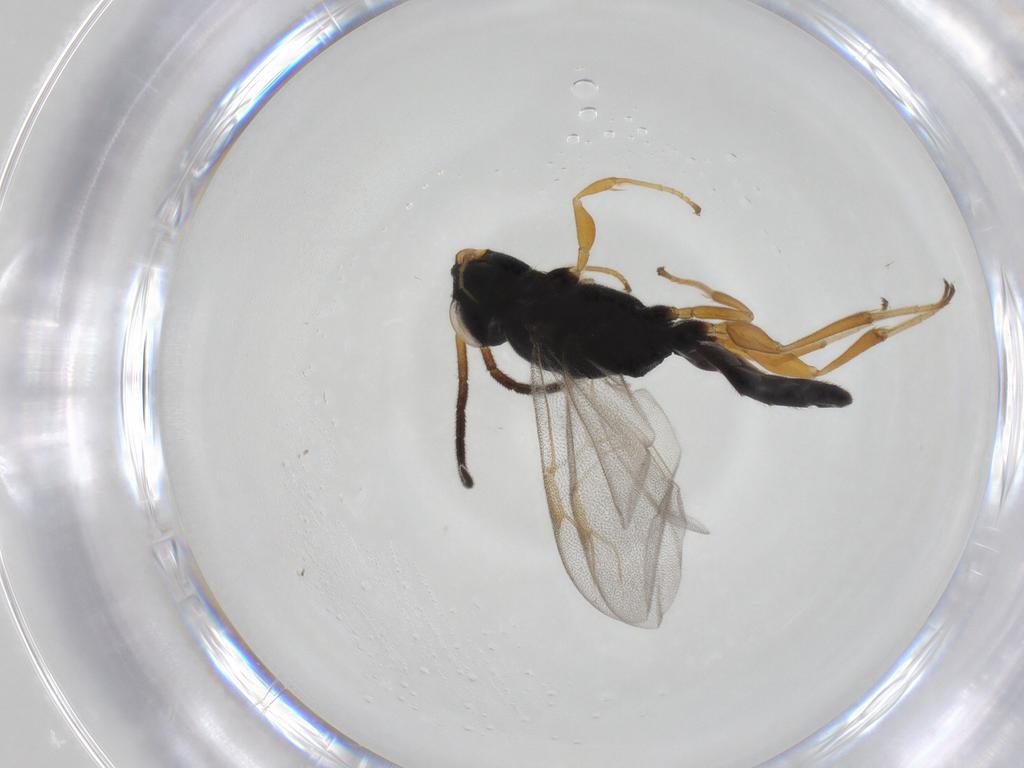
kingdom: Animalia
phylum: Arthropoda
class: Insecta
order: Hymenoptera
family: Dryinidae
